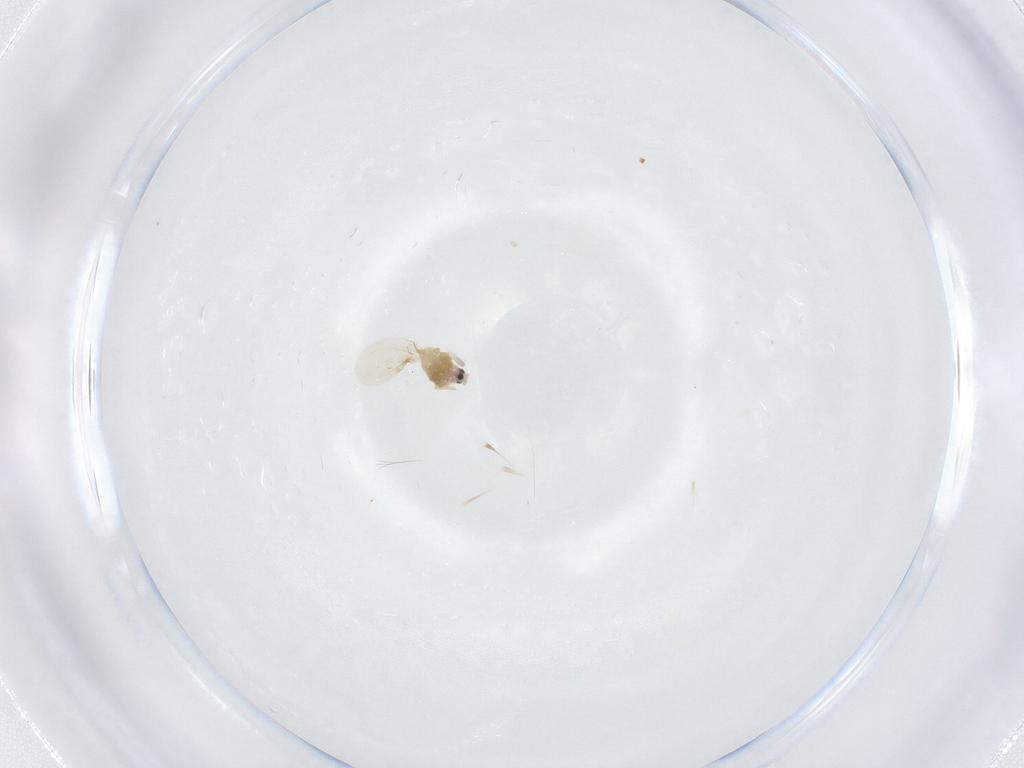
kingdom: Animalia
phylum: Arthropoda
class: Insecta
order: Hemiptera
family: Diaspididae
